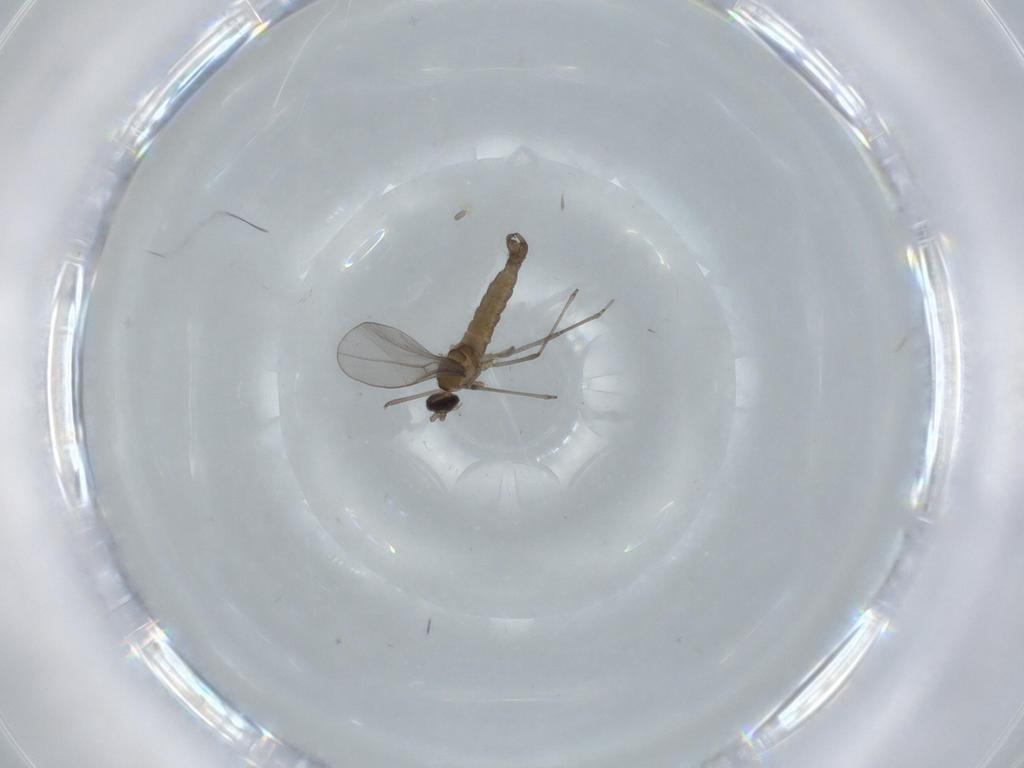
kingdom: Animalia
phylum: Arthropoda
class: Insecta
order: Diptera
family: Cecidomyiidae
